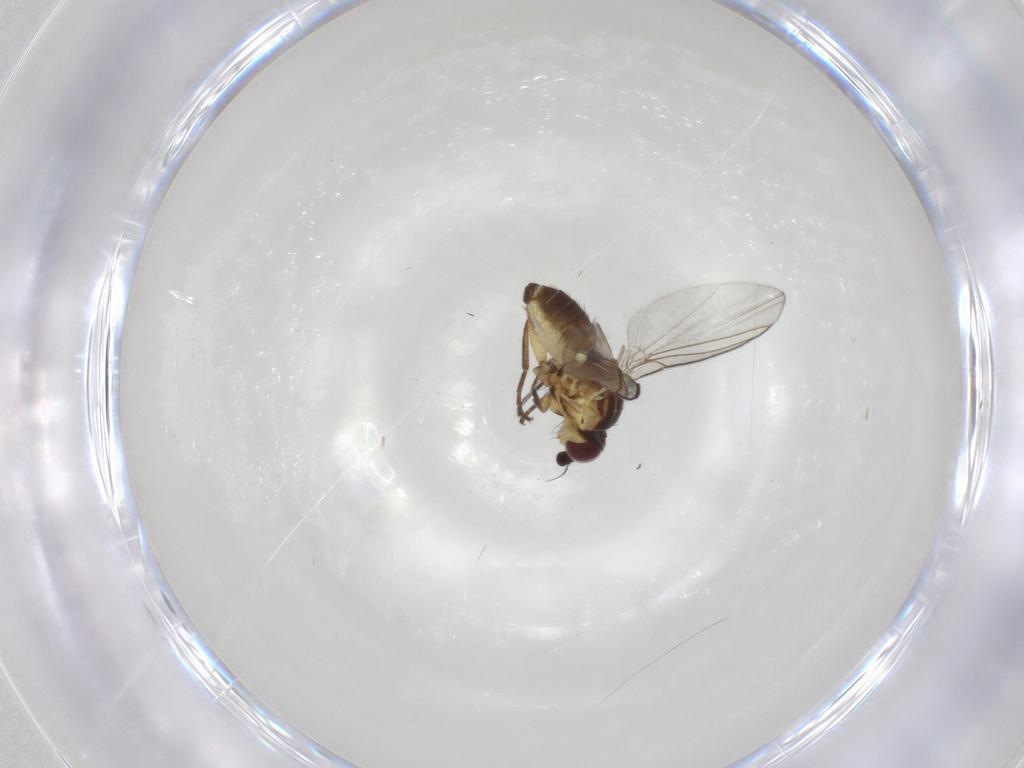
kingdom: Animalia
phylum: Arthropoda
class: Insecta
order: Diptera
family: Agromyzidae
